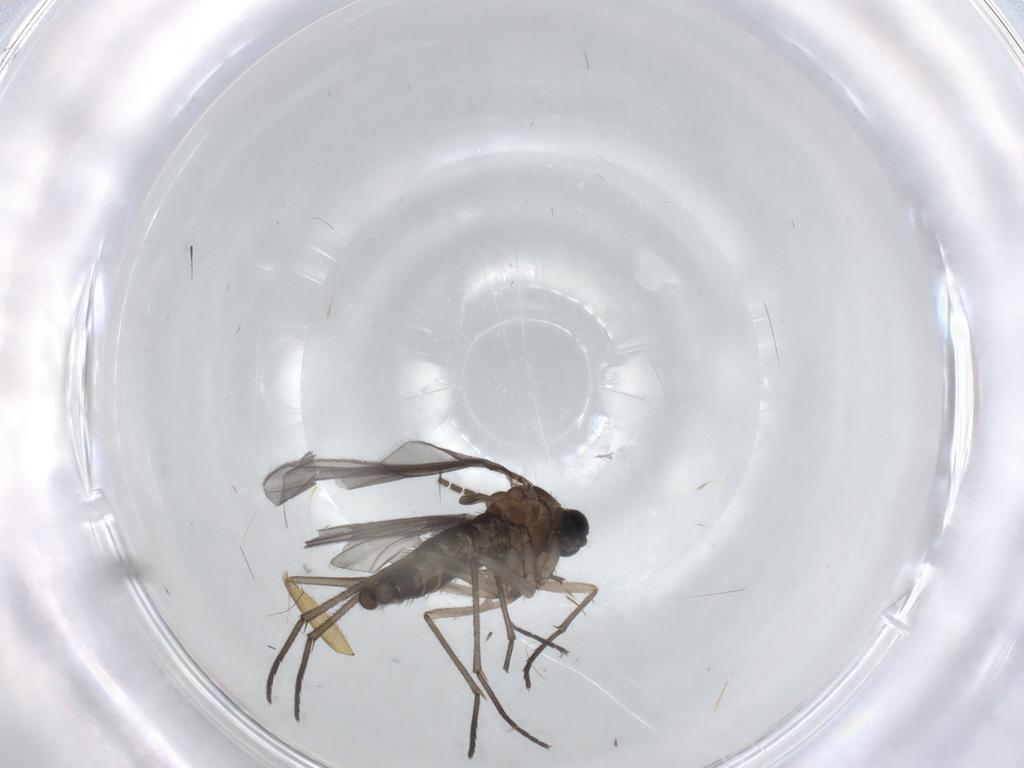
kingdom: Animalia
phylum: Arthropoda
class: Insecta
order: Diptera
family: Sciaridae
